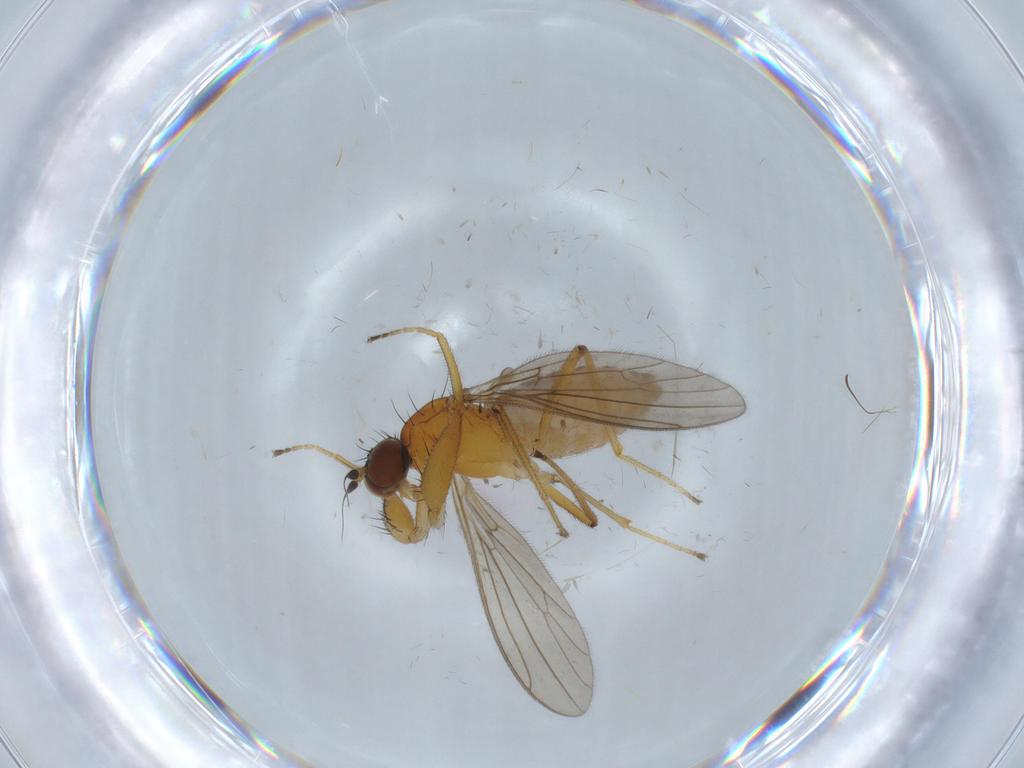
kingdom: Animalia
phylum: Arthropoda
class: Insecta
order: Diptera
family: Empididae
